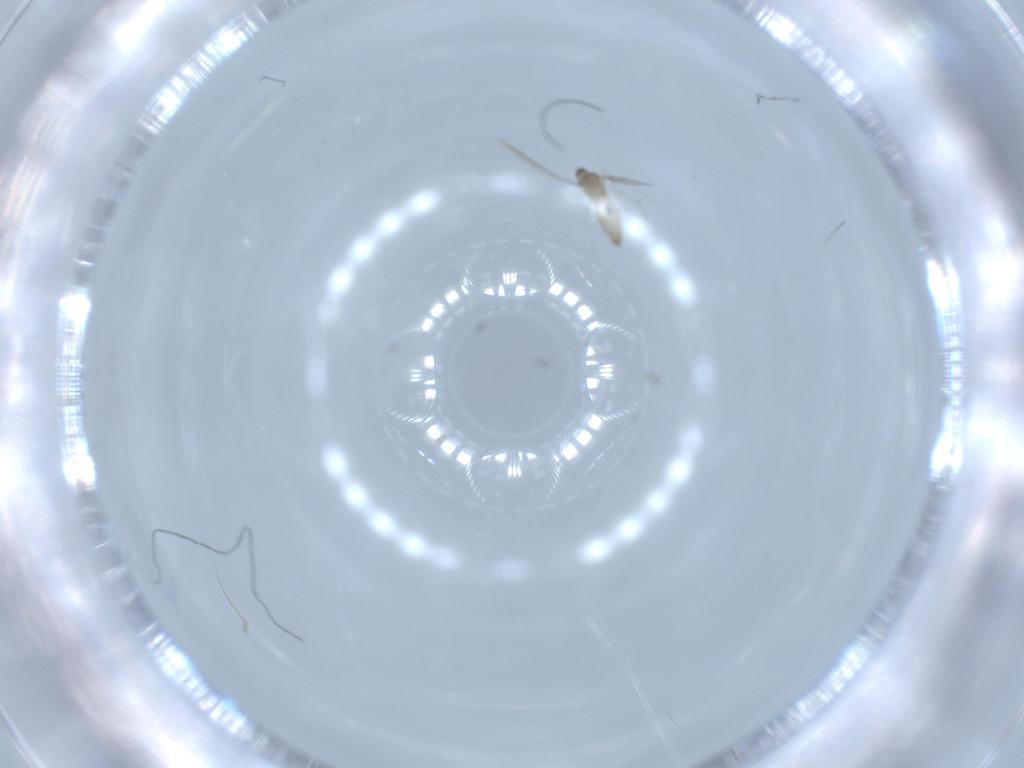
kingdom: Animalia
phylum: Arthropoda
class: Insecta
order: Diptera
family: Cecidomyiidae
